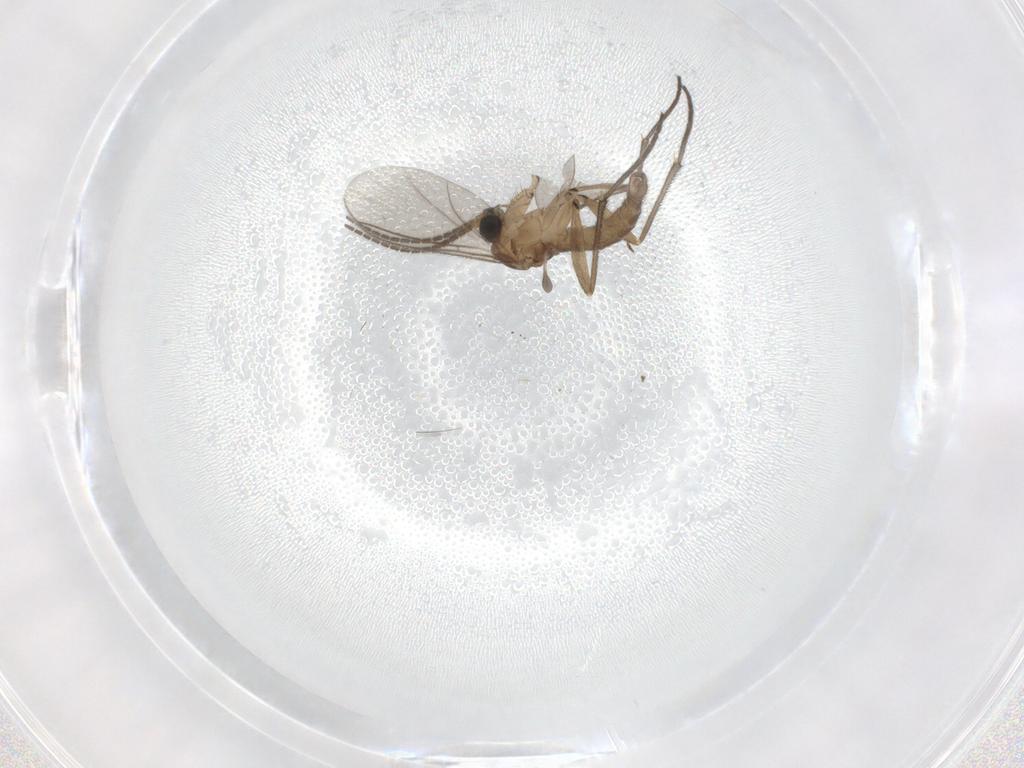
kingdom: Animalia
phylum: Arthropoda
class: Insecta
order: Diptera
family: Sciaridae
